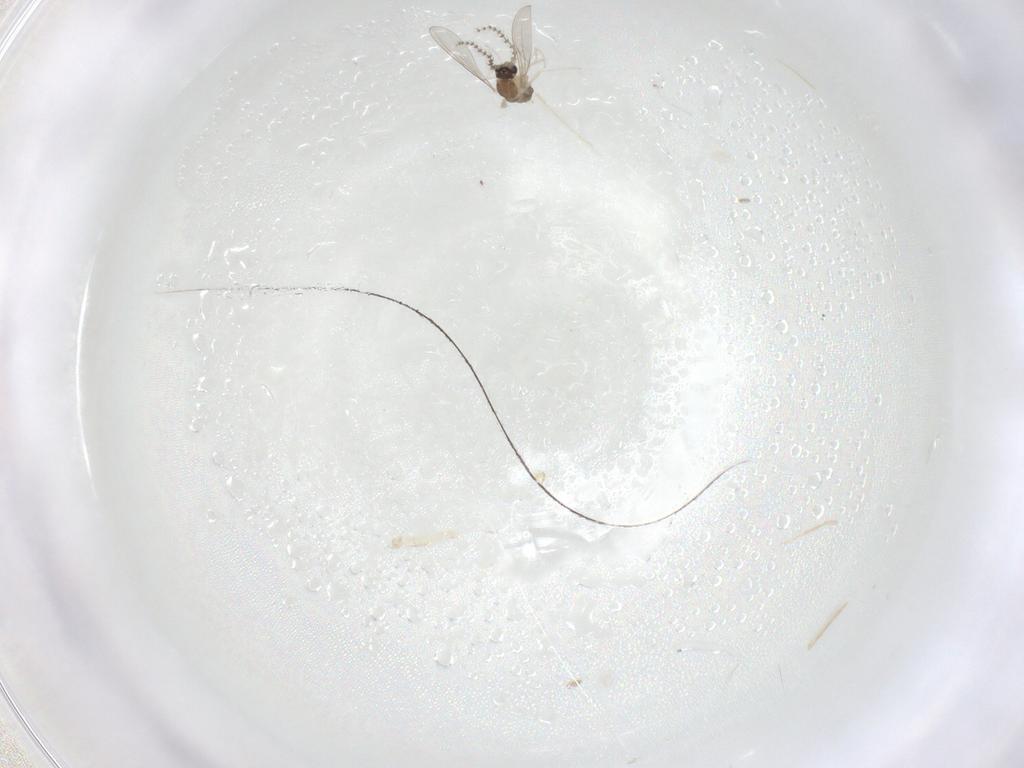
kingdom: Animalia
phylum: Arthropoda
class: Insecta
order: Diptera
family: Cecidomyiidae
